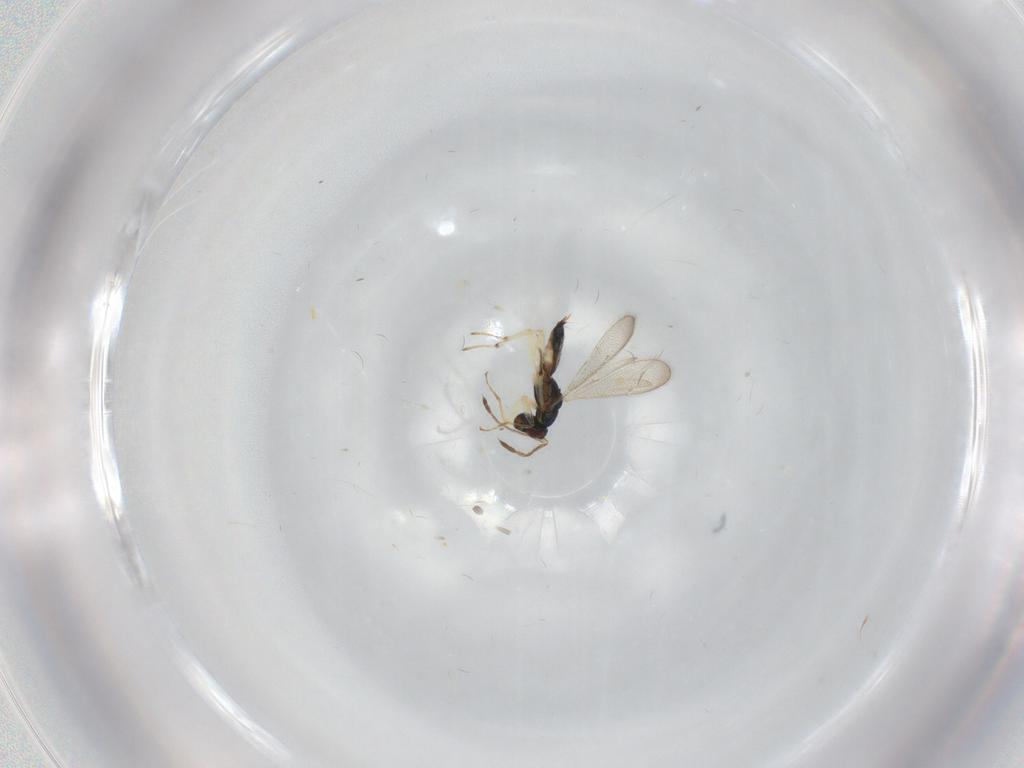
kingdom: Animalia
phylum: Arthropoda
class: Insecta
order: Hymenoptera
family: Eulophidae
